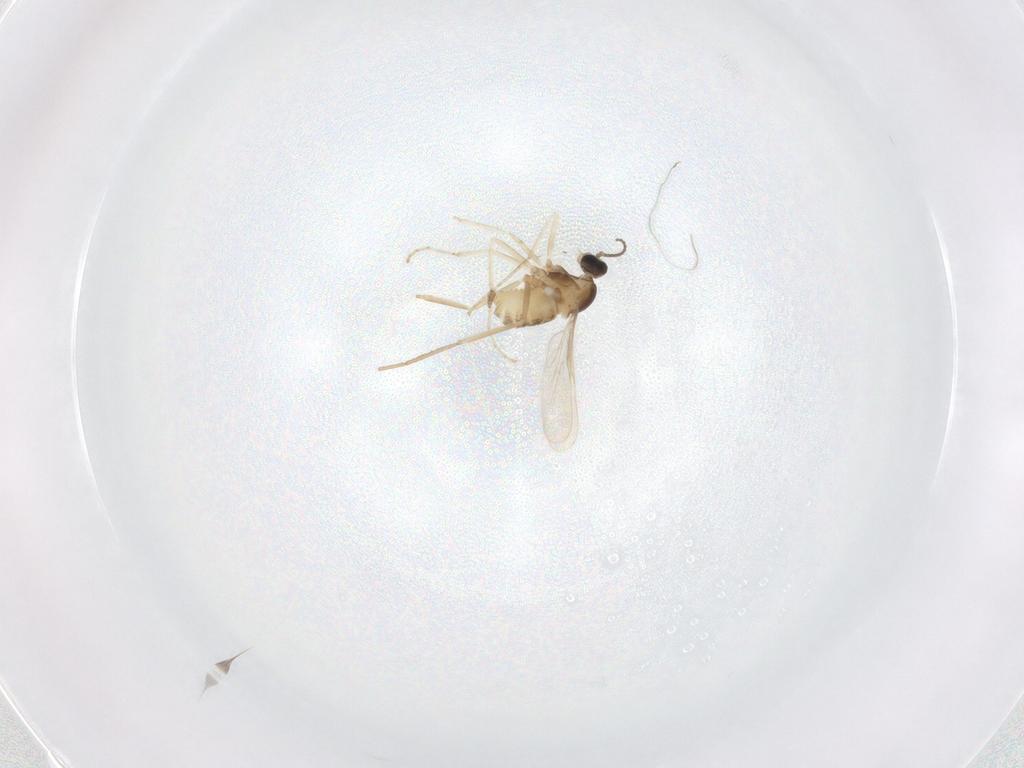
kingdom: Animalia
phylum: Arthropoda
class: Insecta
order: Diptera
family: Cecidomyiidae
